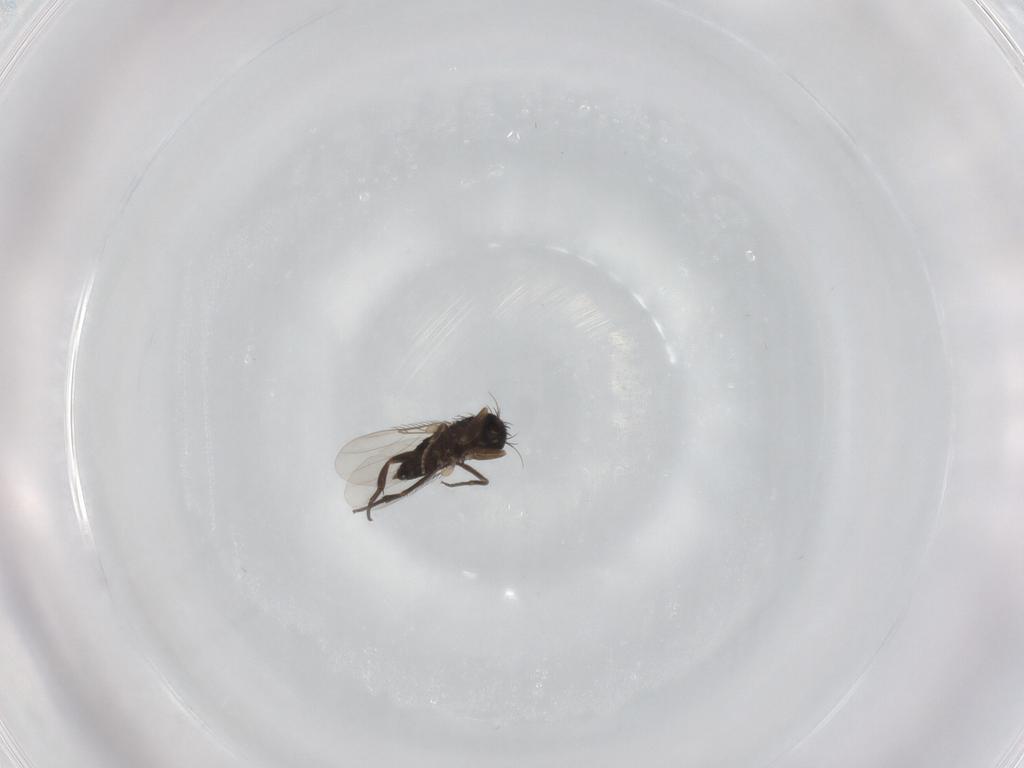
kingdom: Animalia
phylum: Arthropoda
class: Insecta
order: Diptera
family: Phoridae
